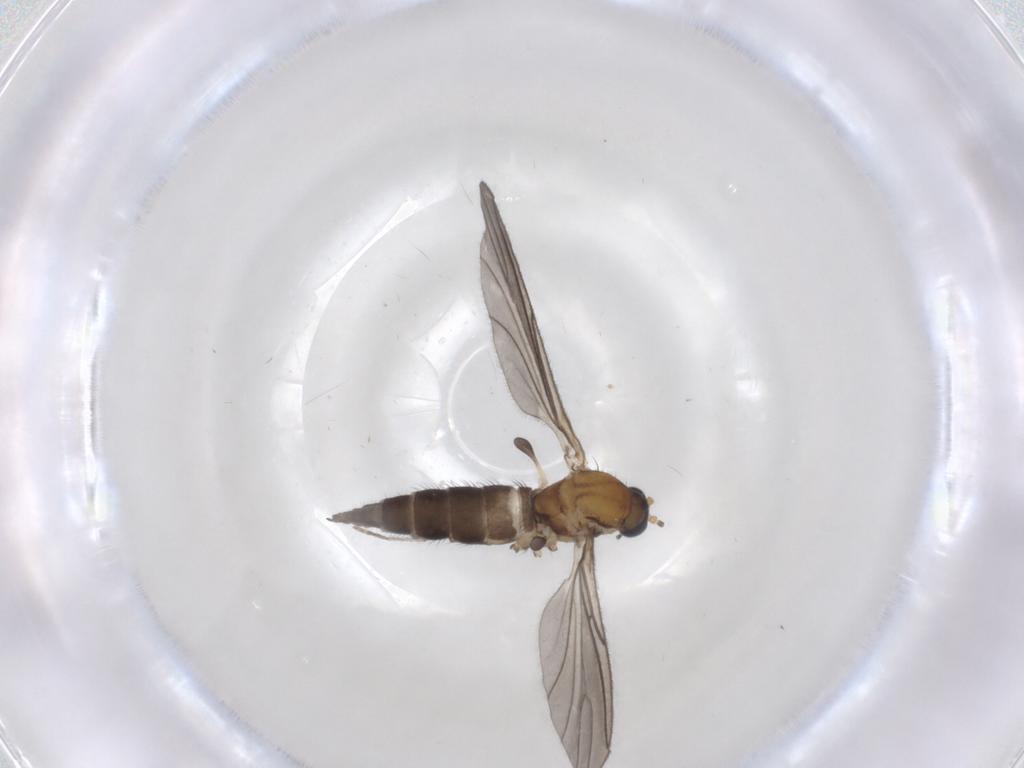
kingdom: Animalia
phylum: Arthropoda
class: Insecta
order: Diptera
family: Sciaridae
